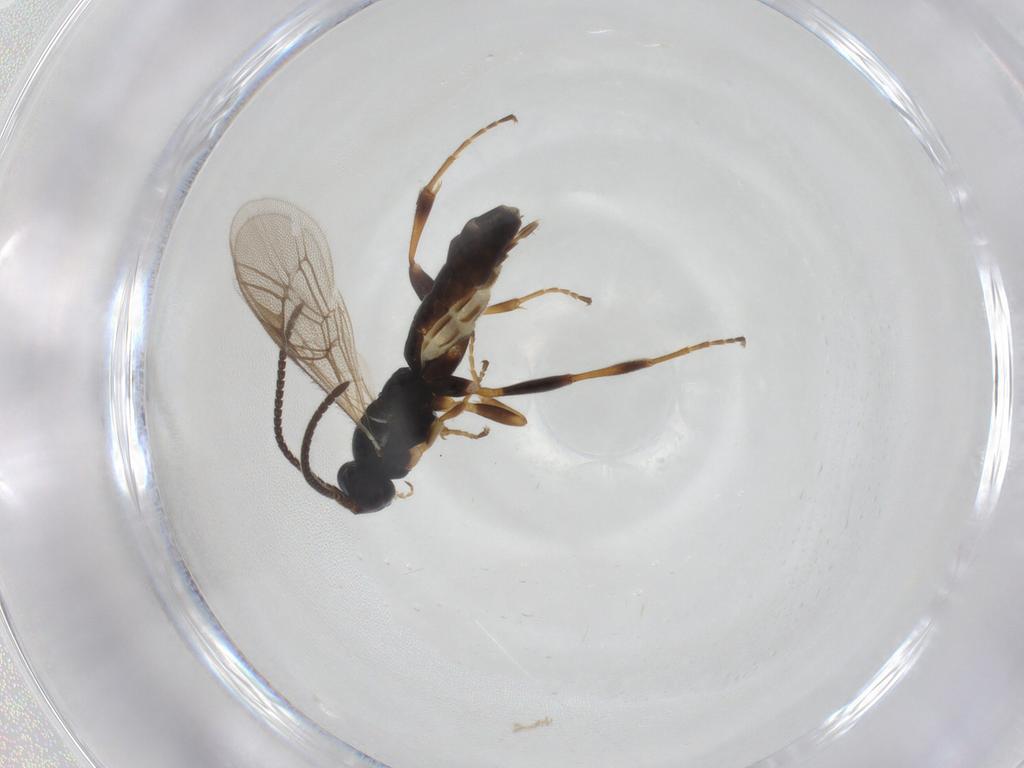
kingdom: Animalia
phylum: Arthropoda
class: Insecta
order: Hymenoptera
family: Ichneumonidae
